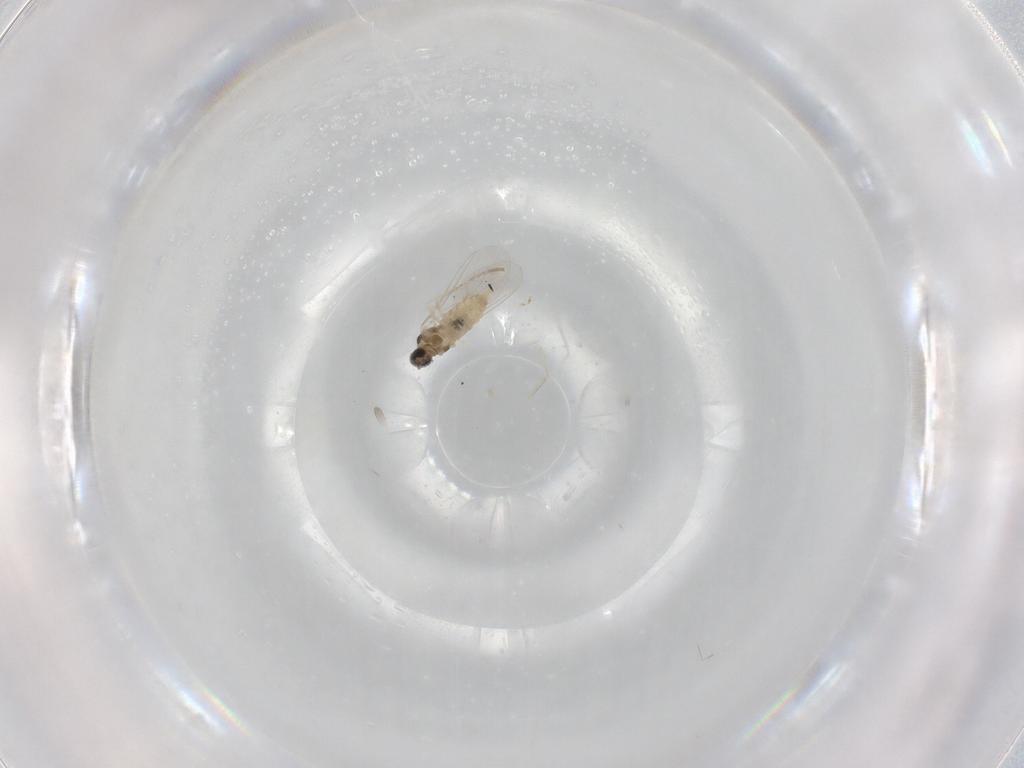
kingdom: Animalia
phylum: Arthropoda
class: Insecta
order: Diptera
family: Cecidomyiidae
